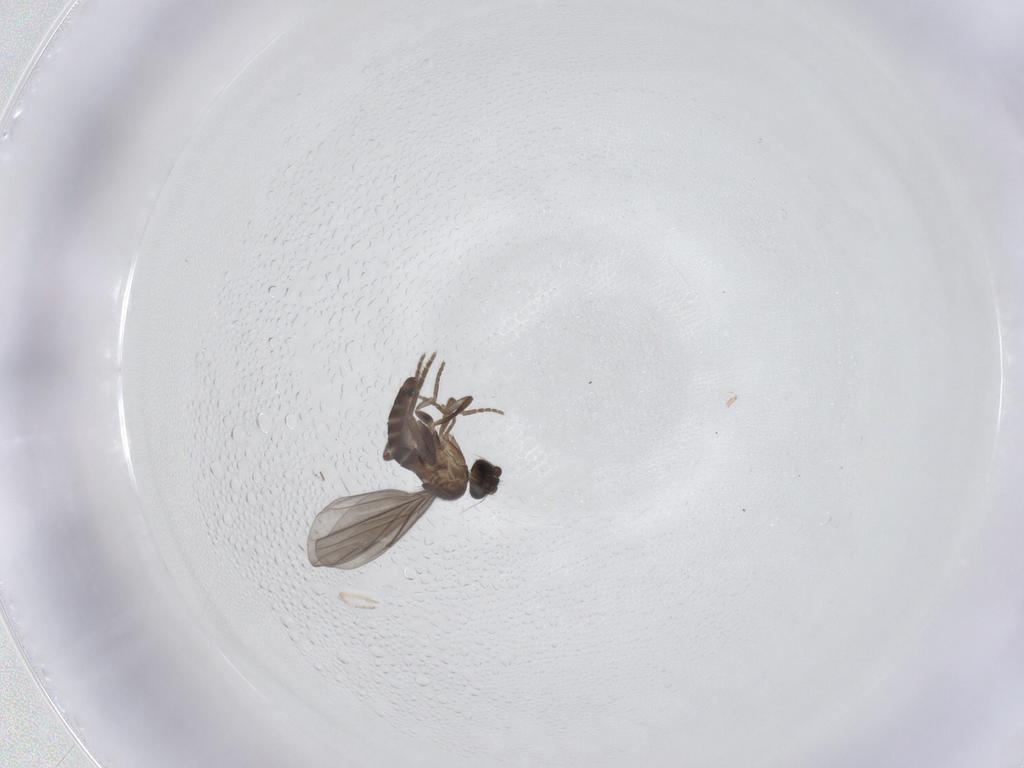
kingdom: Animalia
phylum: Arthropoda
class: Insecta
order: Diptera
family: Phoridae
